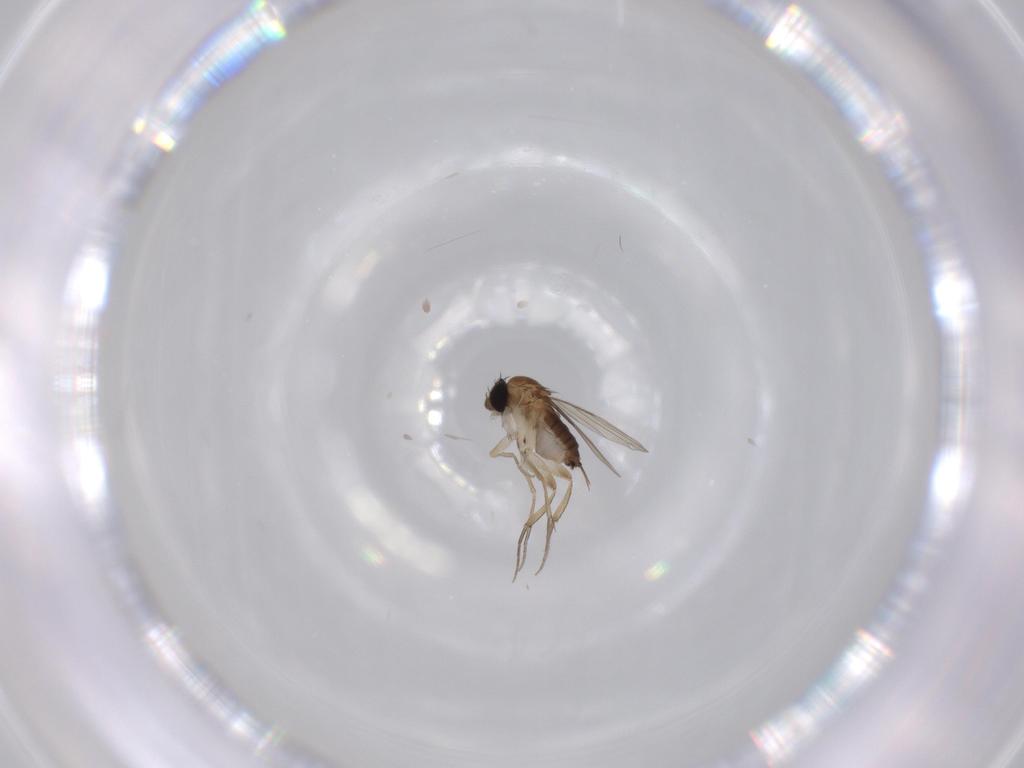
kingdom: Animalia
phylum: Arthropoda
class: Insecta
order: Diptera
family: Phoridae
